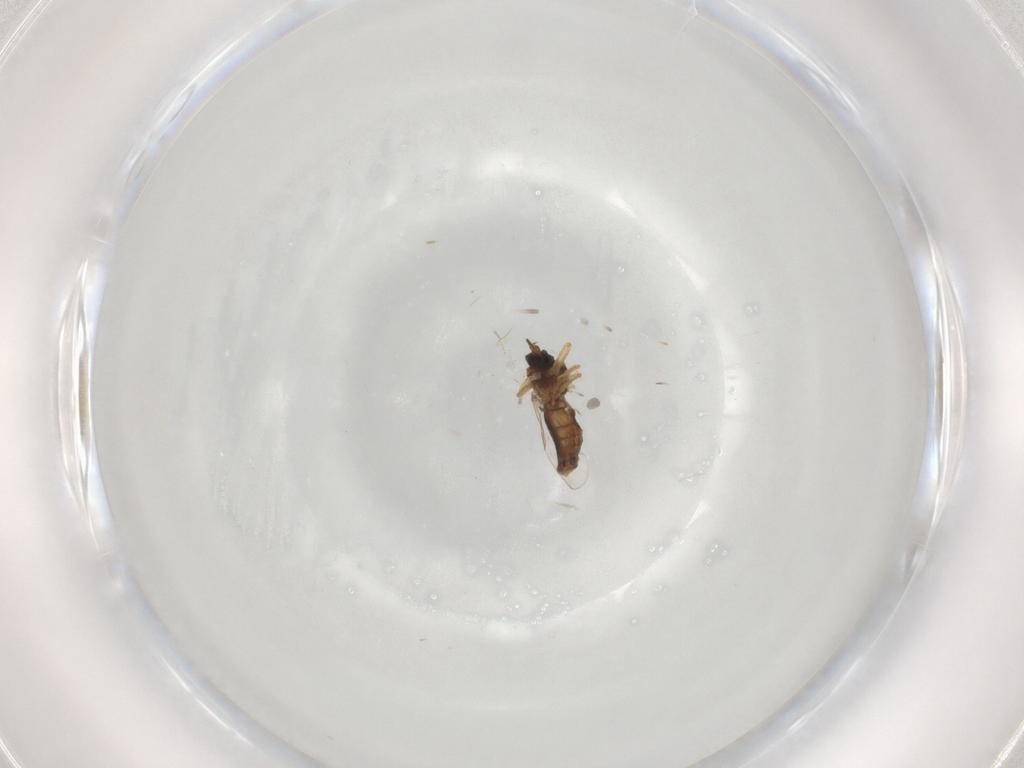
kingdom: Animalia
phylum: Arthropoda
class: Insecta
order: Diptera
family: Ceratopogonidae
